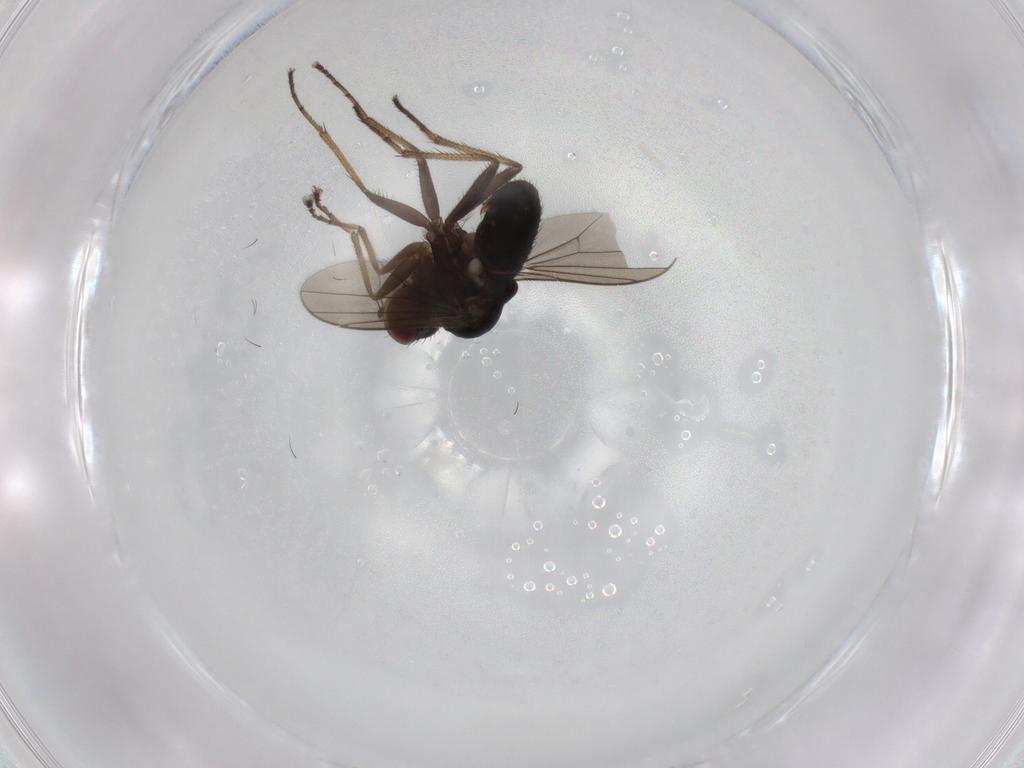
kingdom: Animalia
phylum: Arthropoda
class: Insecta
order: Diptera
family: Dolichopodidae
